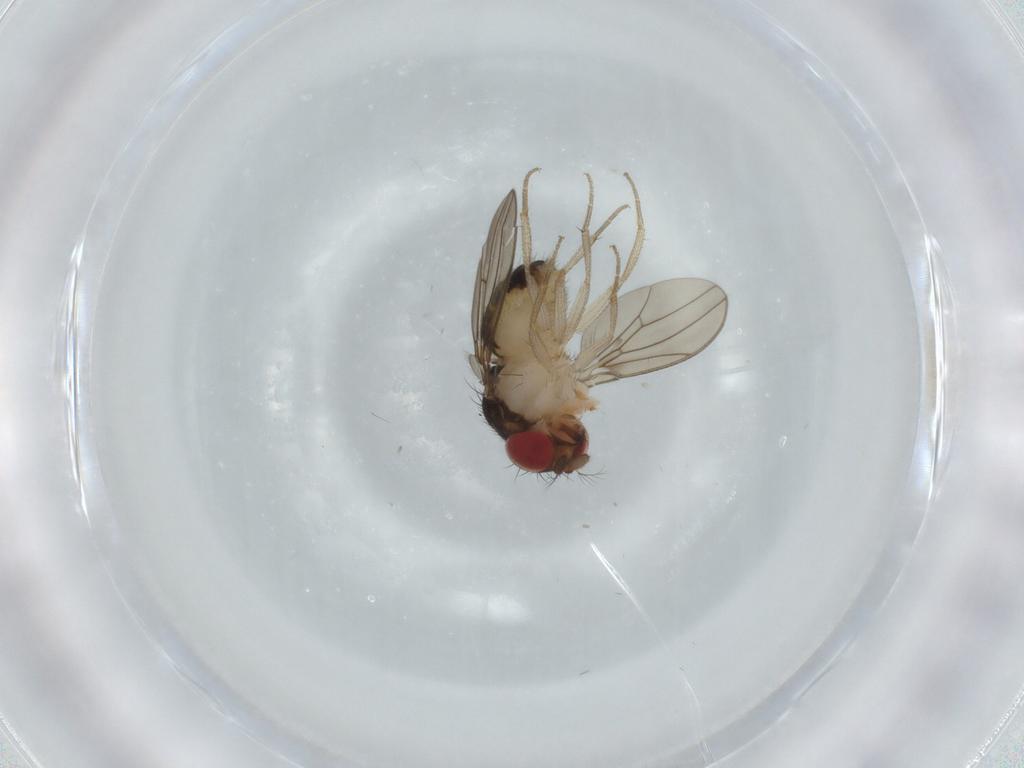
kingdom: Animalia
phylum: Arthropoda
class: Insecta
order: Diptera
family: Drosophilidae
